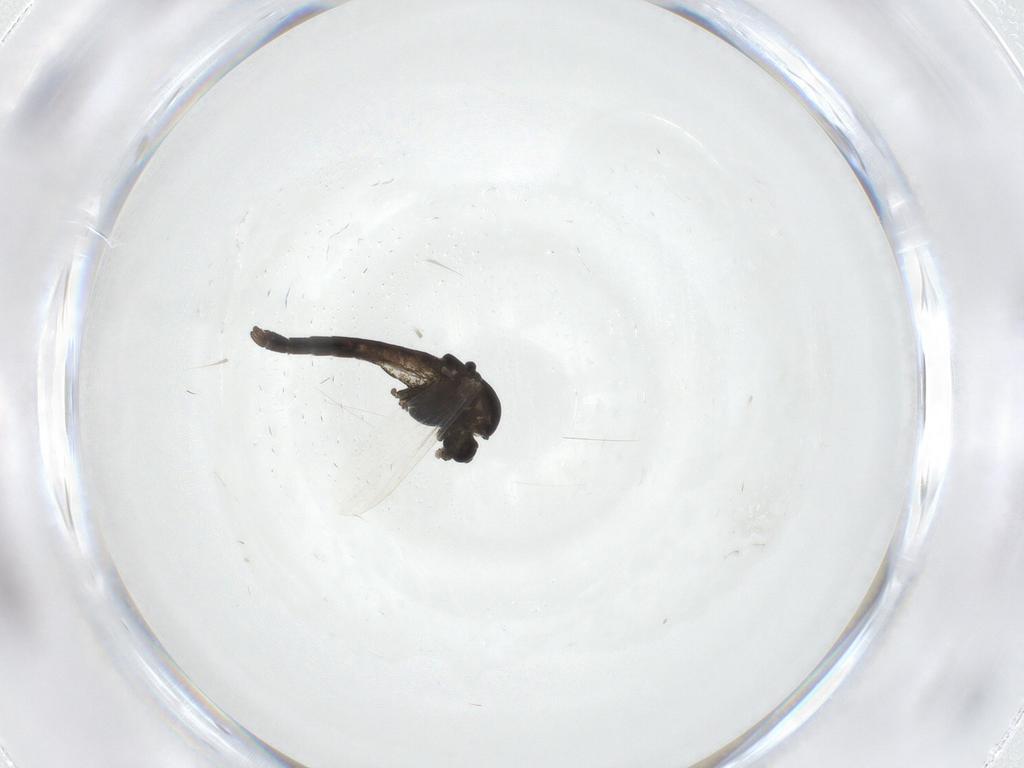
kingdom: Animalia
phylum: Arthropoda
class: Insecta
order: Diptera
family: Chironomidae
